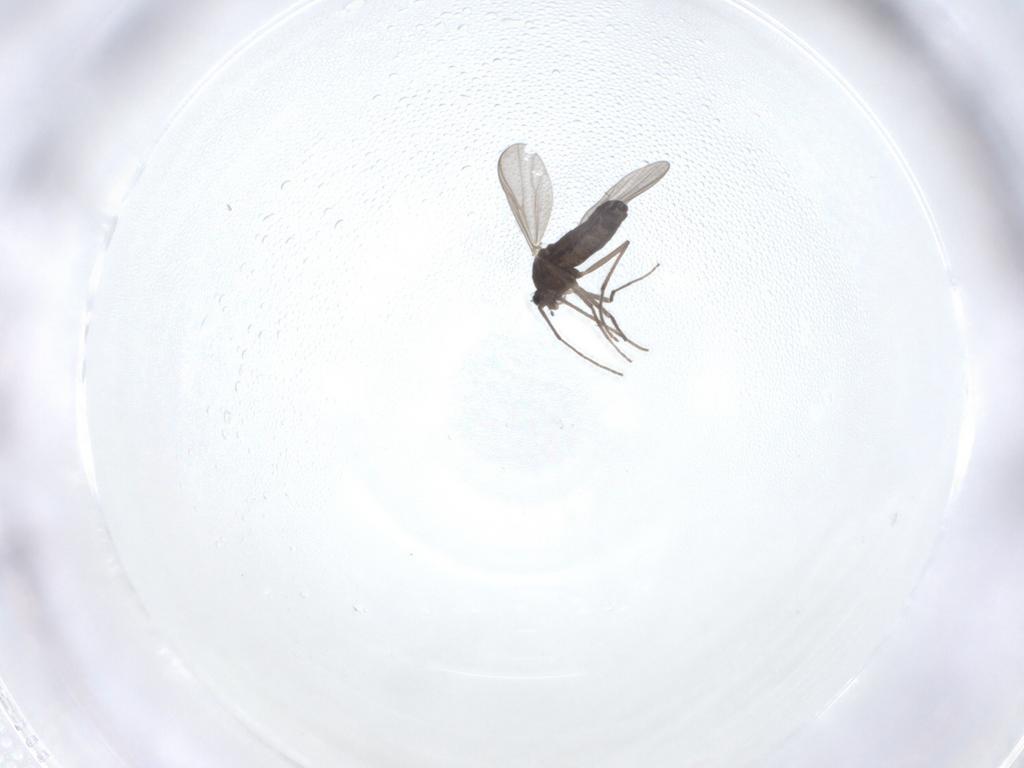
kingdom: Animalia
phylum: Arthropoda
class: Insecta
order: Diptera
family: Chironomidae
